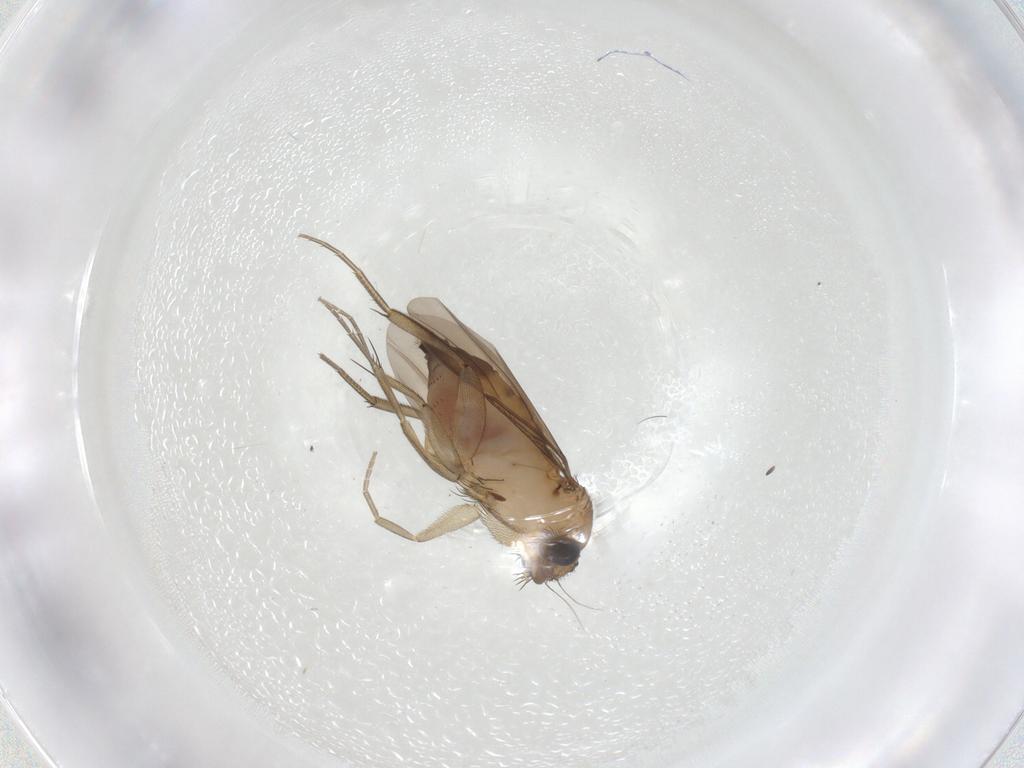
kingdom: Animalia
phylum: Arthropoda
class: Insecta
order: Diptera
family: Phoridae
